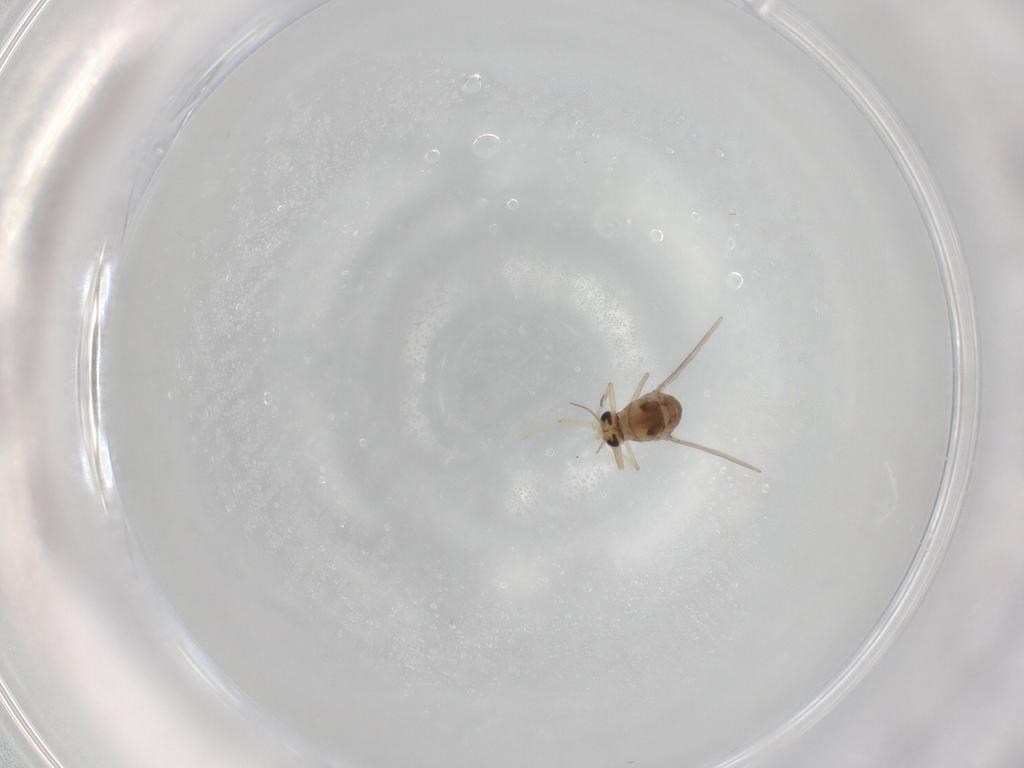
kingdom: Animalia
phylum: Arthropoda
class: Insecta
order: Diptera
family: Chironomidae
